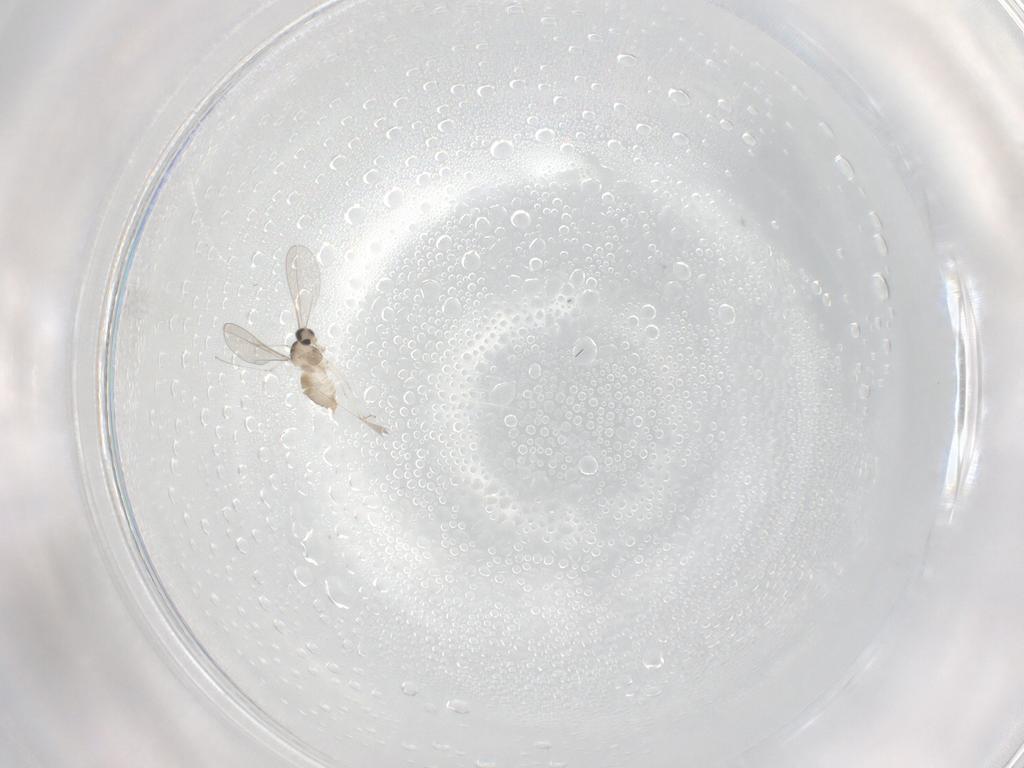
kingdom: Animalia
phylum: Arthropoda
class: Insecta
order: Diptera
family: Cecidomyiidae
